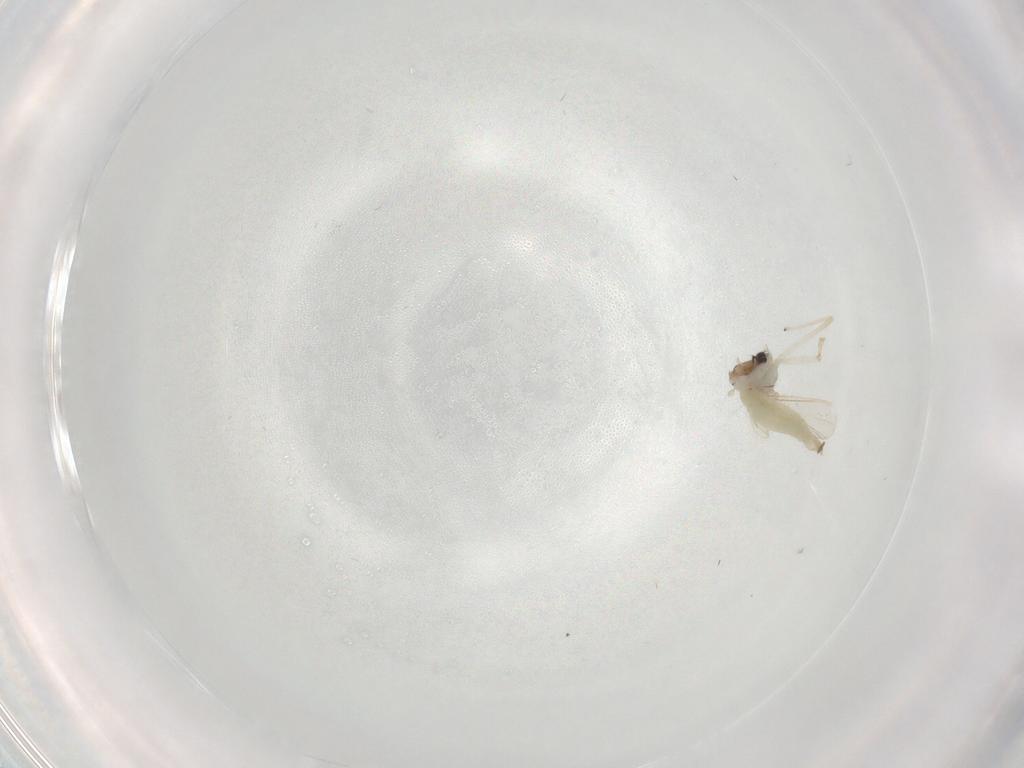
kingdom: Animalia
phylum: Arthropoda
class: Insecta
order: Diptera
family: Chironomidae
